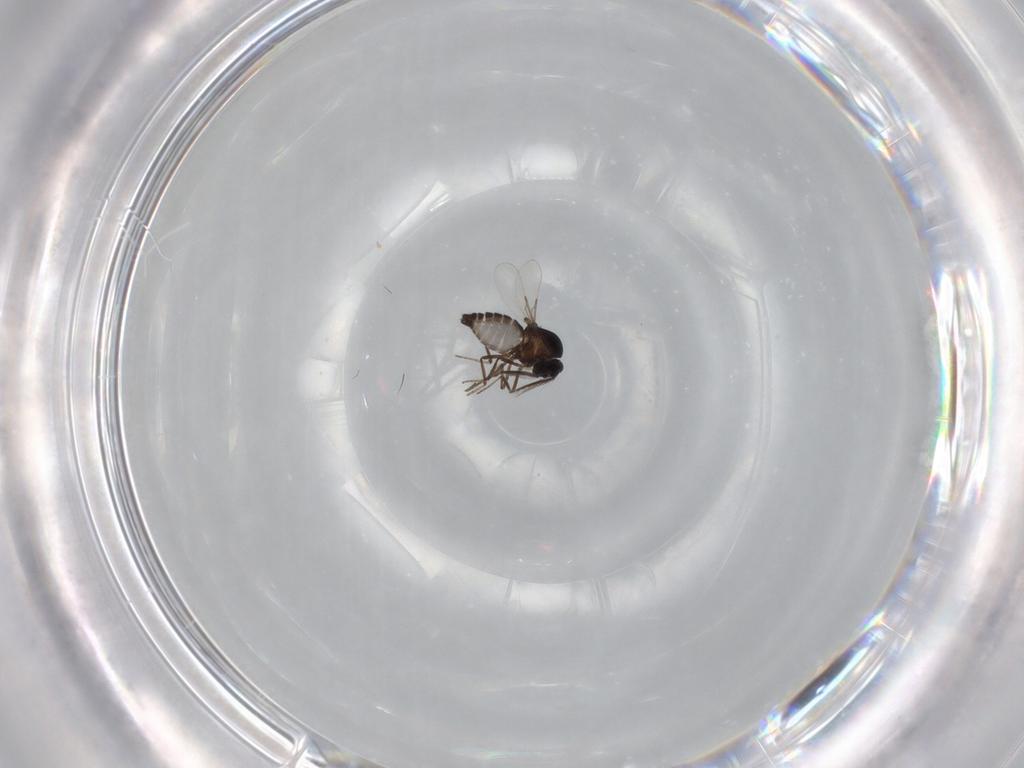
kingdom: Animalia
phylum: Arthropoda
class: Insecta
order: Diptera
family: Ceratopogonidae
